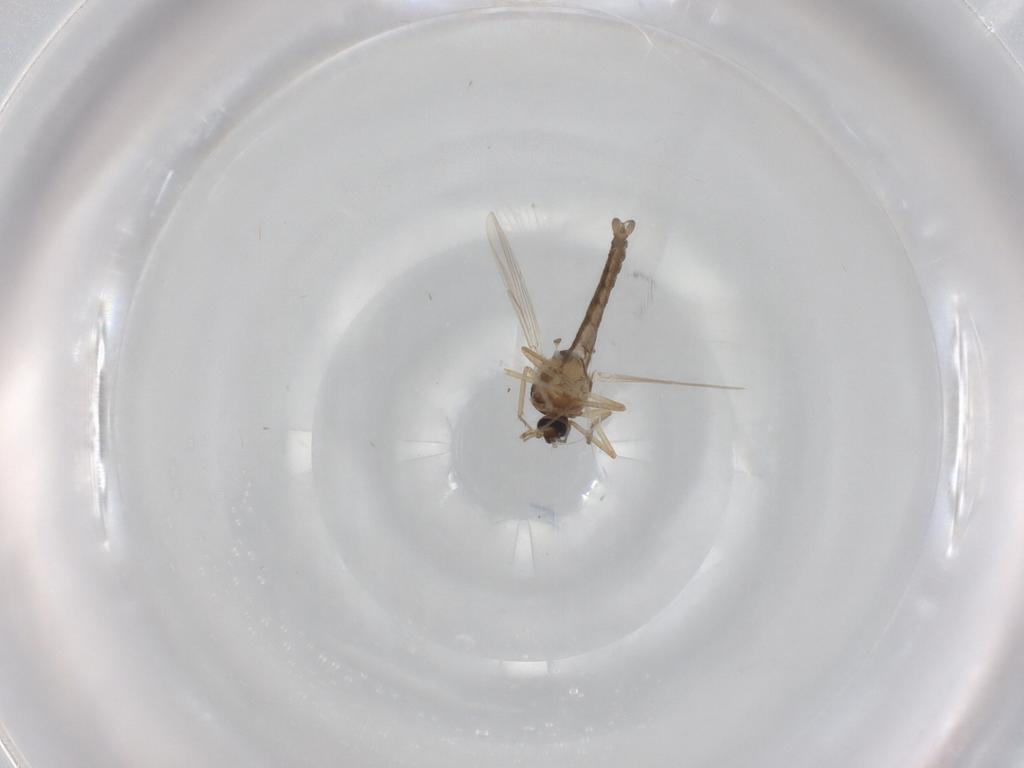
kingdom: Animalia
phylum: Arthropoda
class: Insecta
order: Diptera
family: Ceratopogonidae
